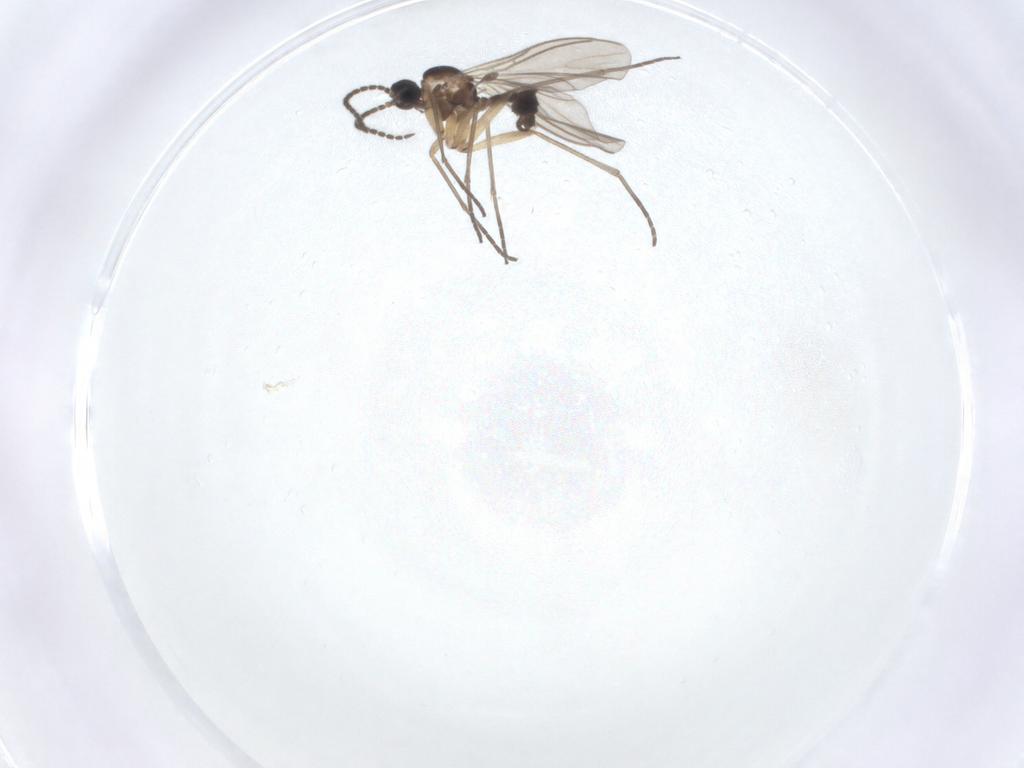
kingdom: Animalia
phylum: Arthropoda
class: Insecta
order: Diptera
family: Sciaridae
